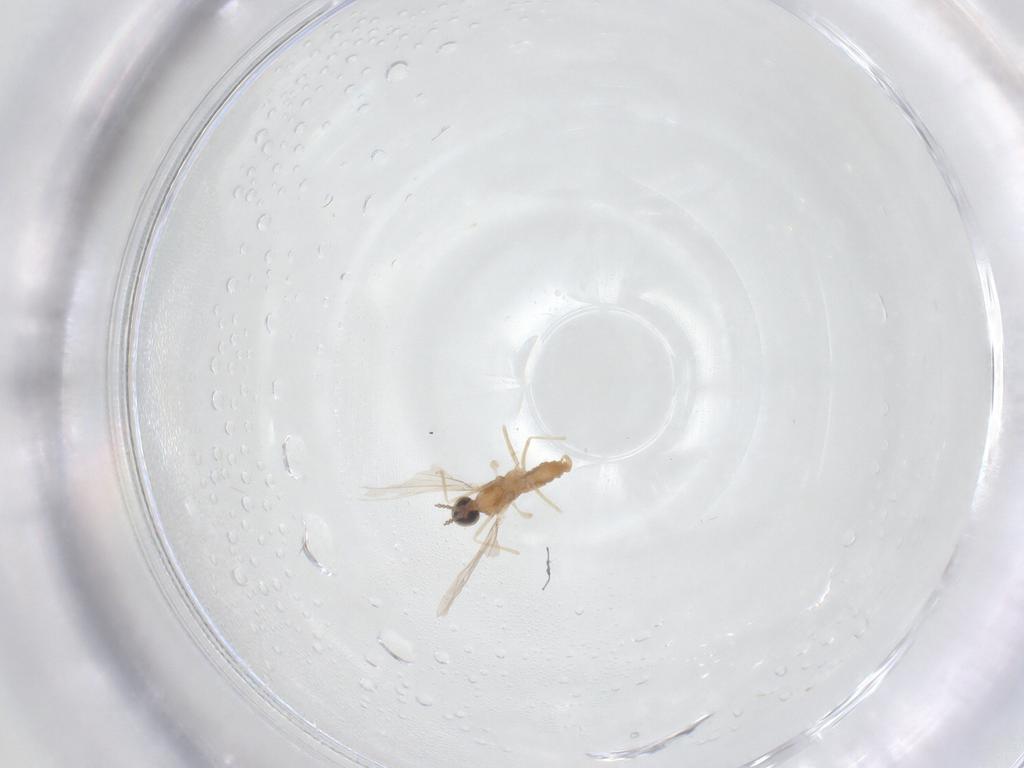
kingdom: Animalia
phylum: Arthropoda
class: Insecta
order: Diptera
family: Cecidomyiidae
